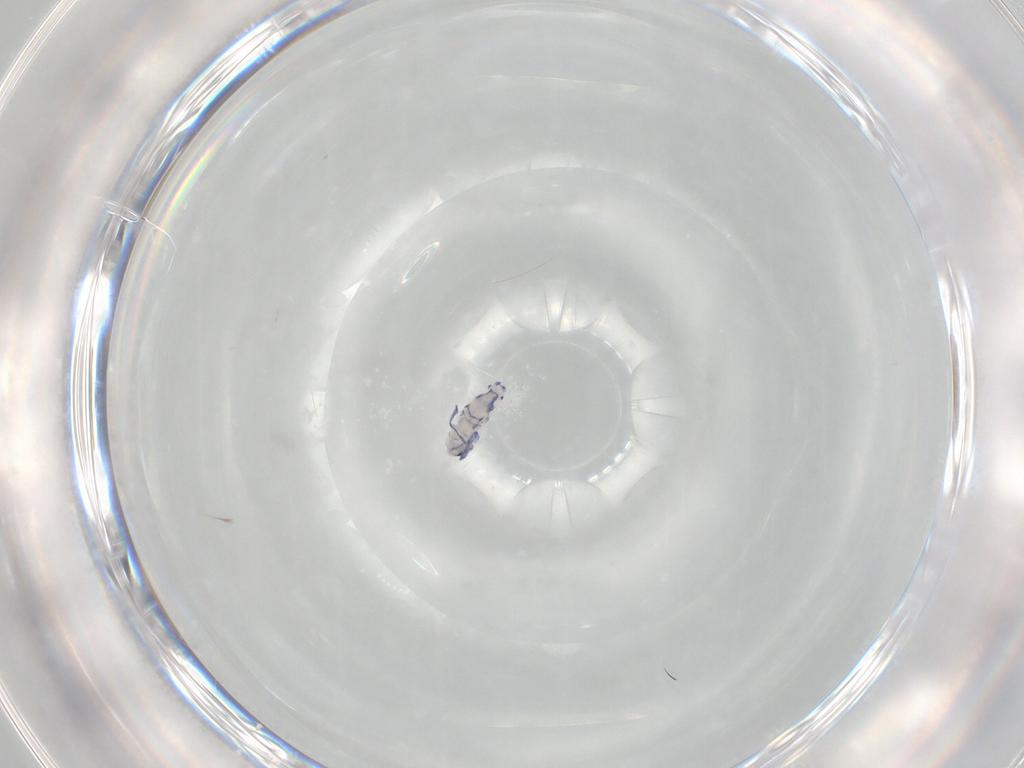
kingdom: Animalia
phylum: Arthropoda
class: Collembola
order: Entomobryomorpha
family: Entomobryidae
